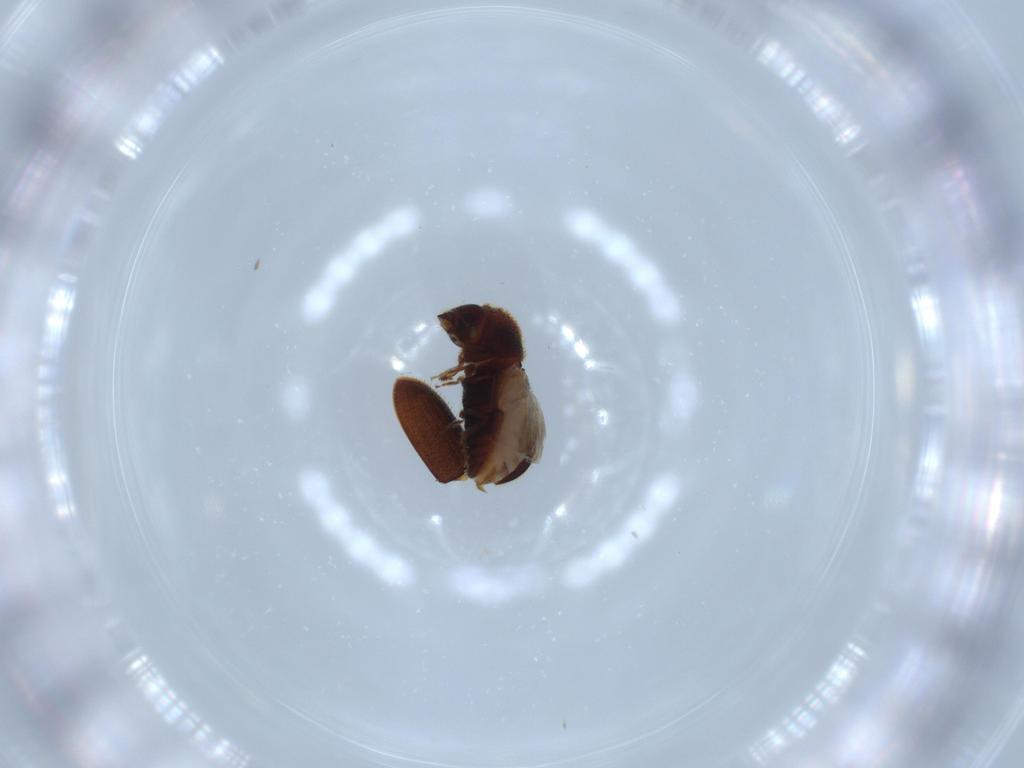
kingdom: Animalia
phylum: Arthropoda
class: Insecta
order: Coleoptera
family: Curculionidae
